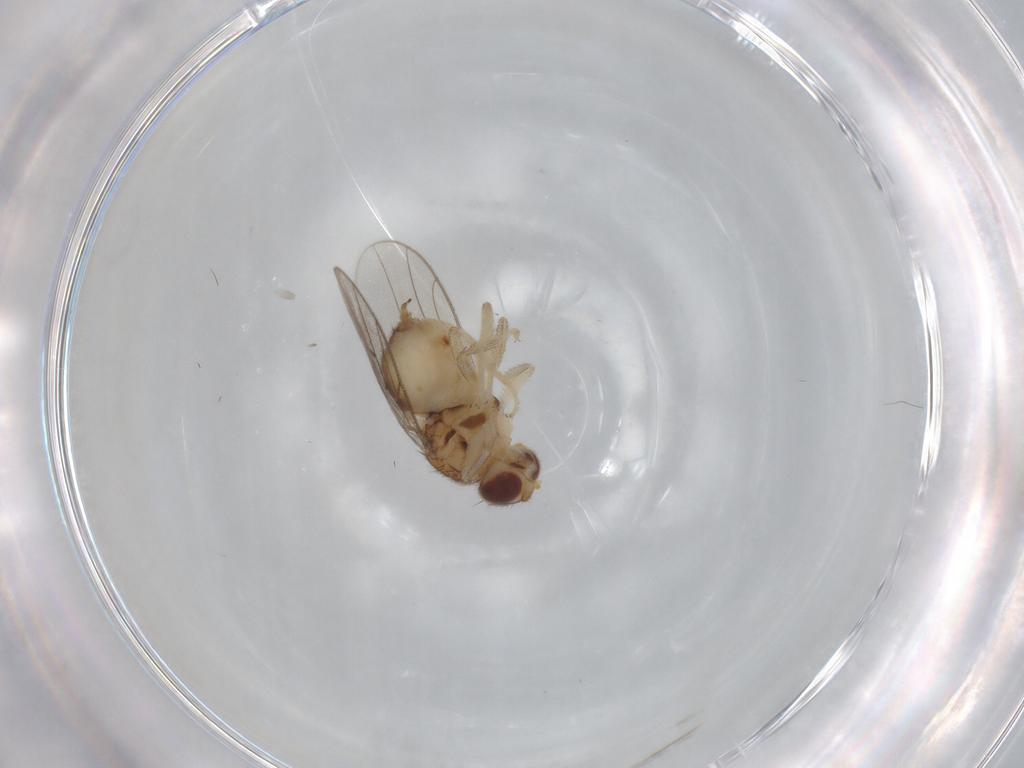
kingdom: Animalia
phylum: Arthropoda
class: Insecta
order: Diptera
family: Chloropidae
